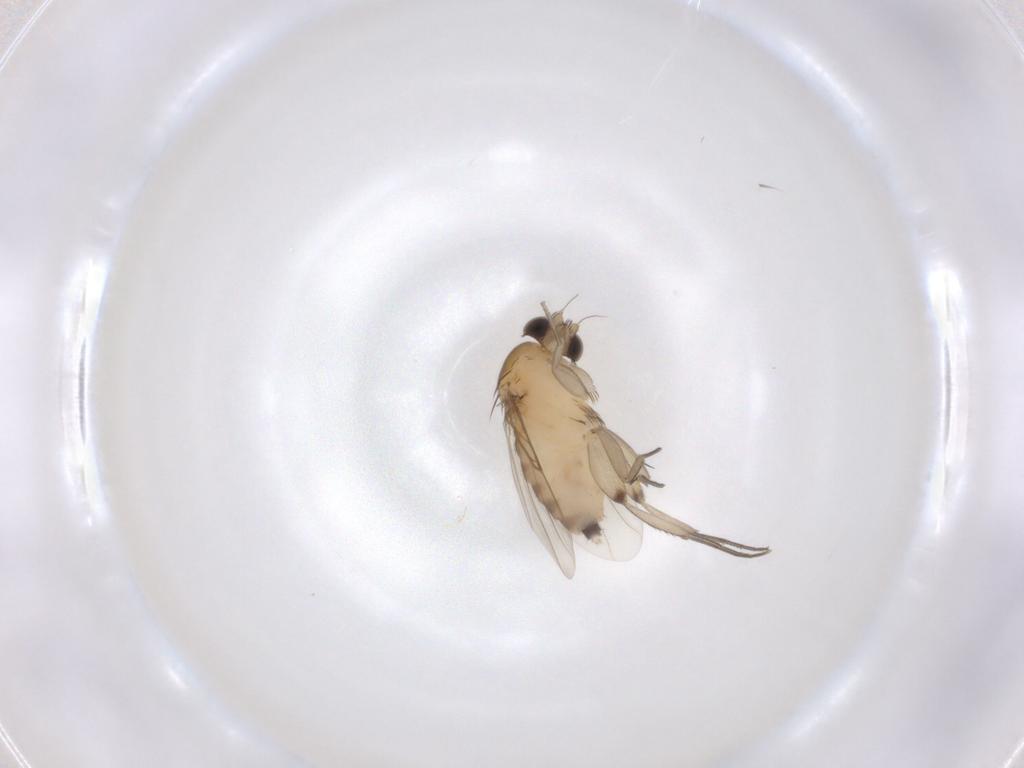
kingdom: Animalia
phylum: Arthropoda
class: Insecta
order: Diptera
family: Phoridae
